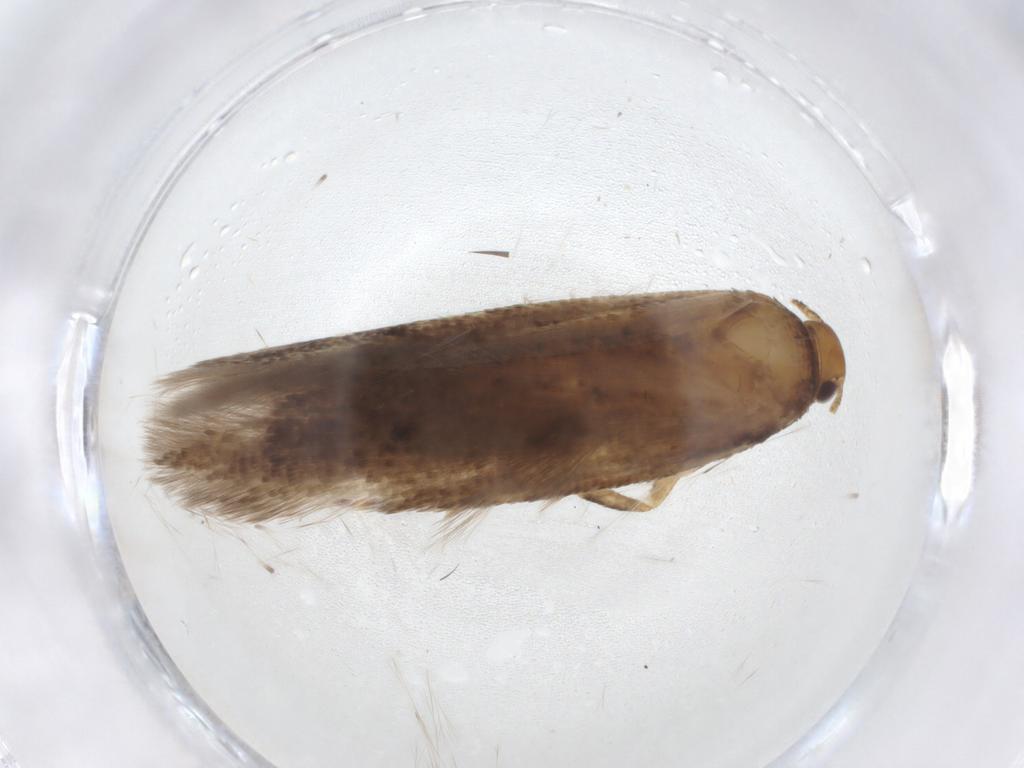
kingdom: Animalia
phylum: Arthropoda
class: Insecta
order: Lepidoptera
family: Gelechiidae
